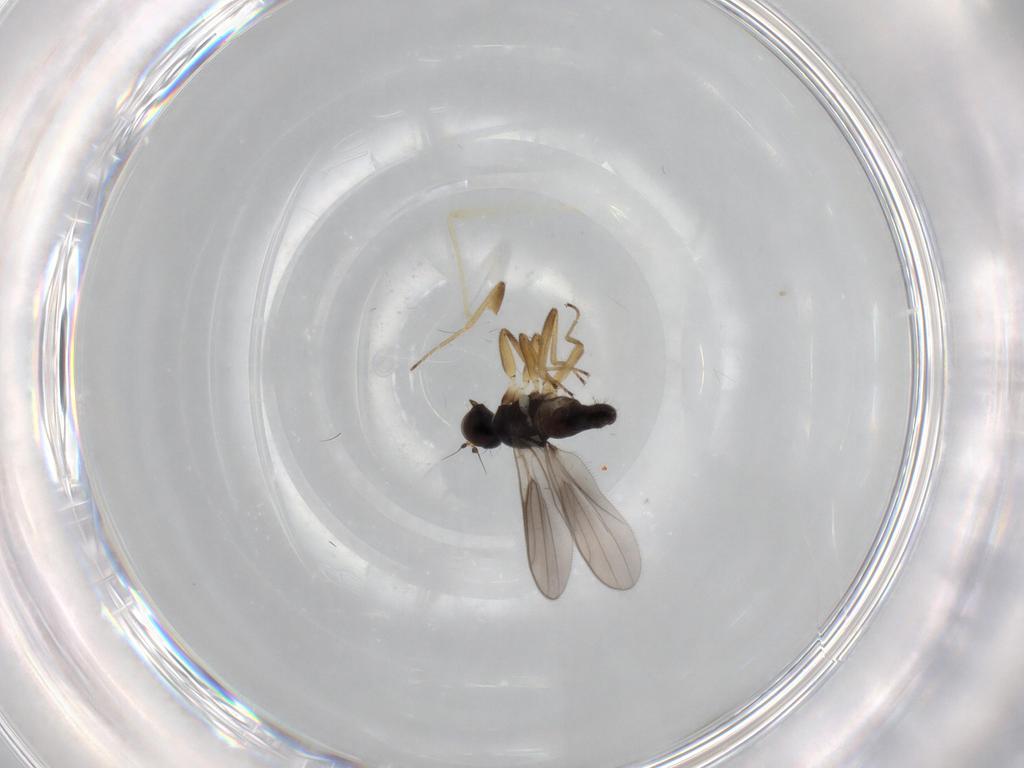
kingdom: Animalia
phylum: Arthropoda
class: Insecta
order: Diptera
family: Hybotidae
